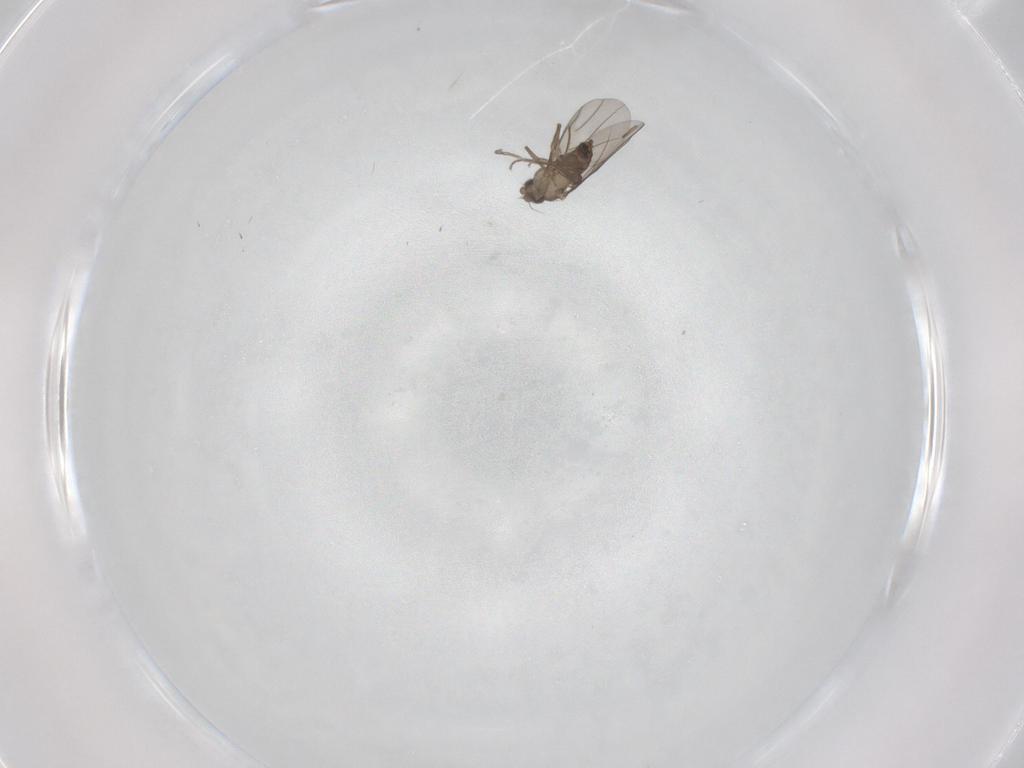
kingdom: Animalia
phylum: Arthropoda
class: Insecta
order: Diptera
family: Phoridae
